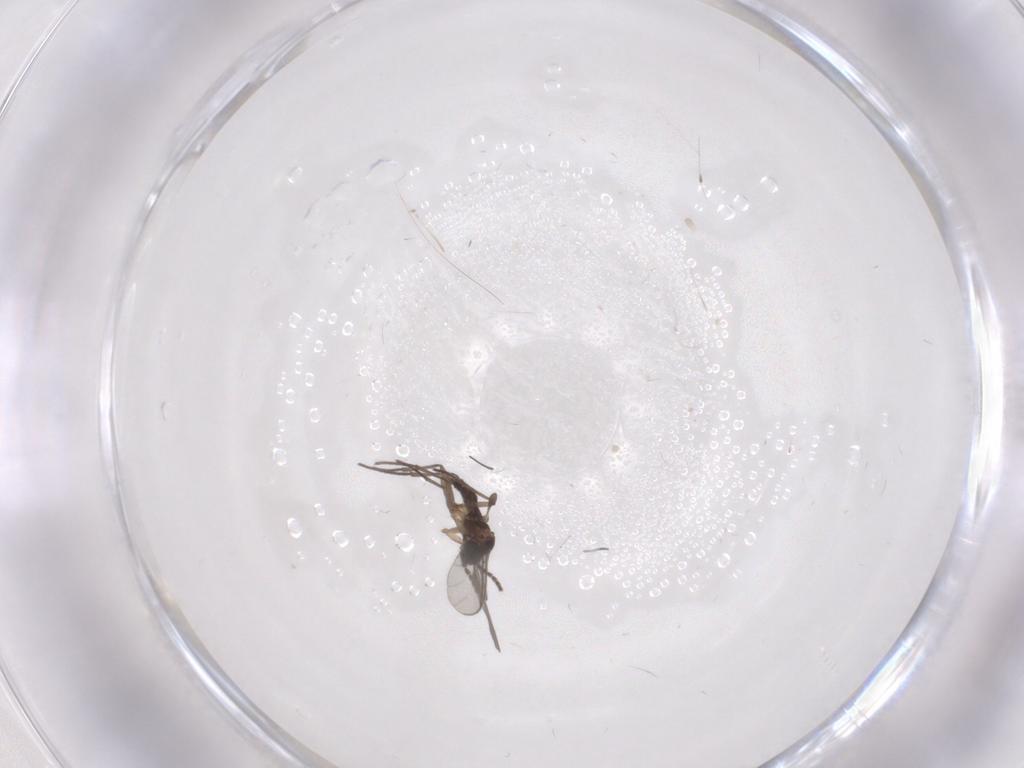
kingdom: Animalia
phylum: Arthropoda
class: Insecta
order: Diptera
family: Sciaridae
